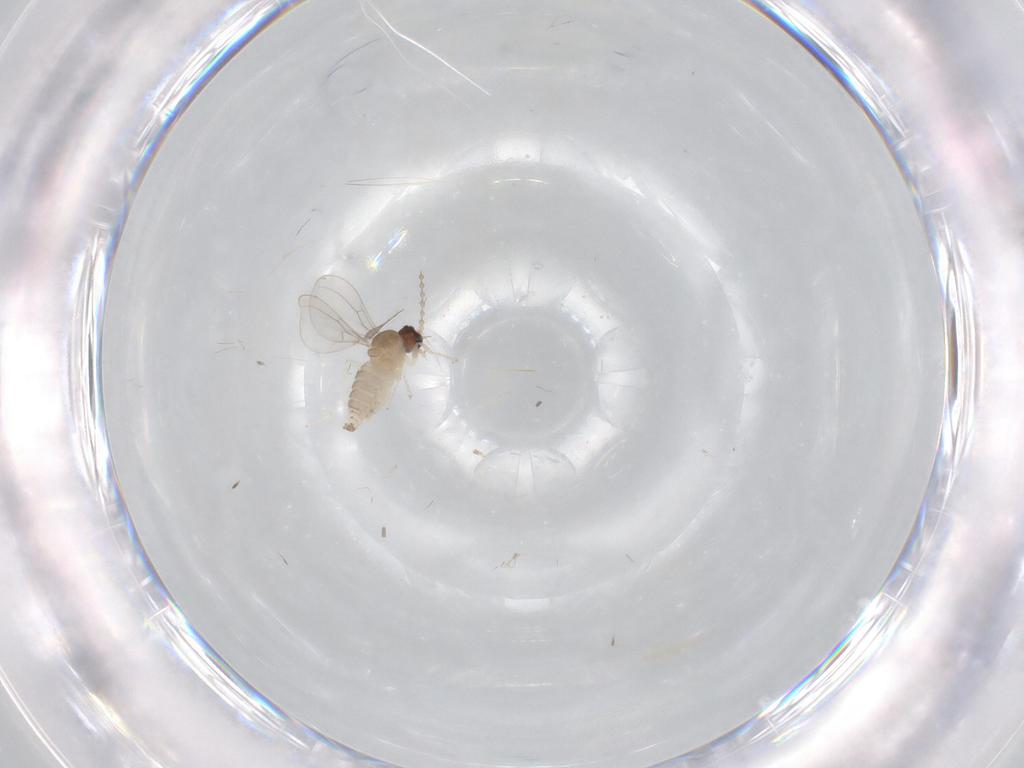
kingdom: Animalia
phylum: Arthropoda
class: Insecta
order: Diptera
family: Cecidomyiidae
